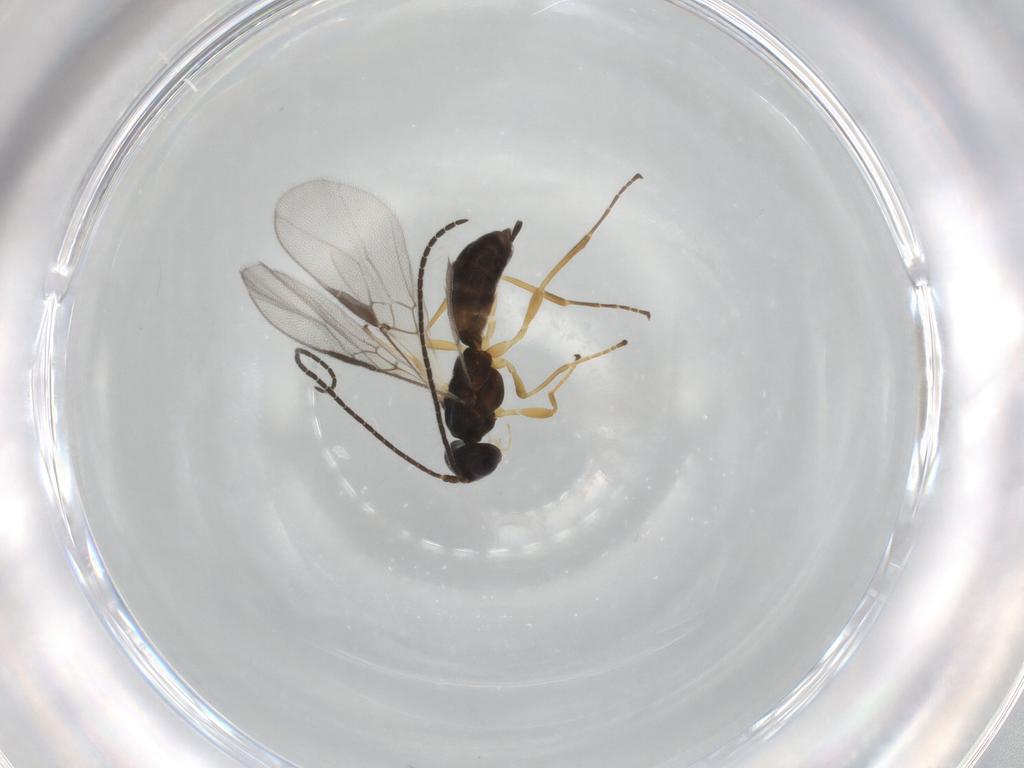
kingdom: Animalia
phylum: Arthropoda
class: Insecta
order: Hymenoptera
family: Braconidae
